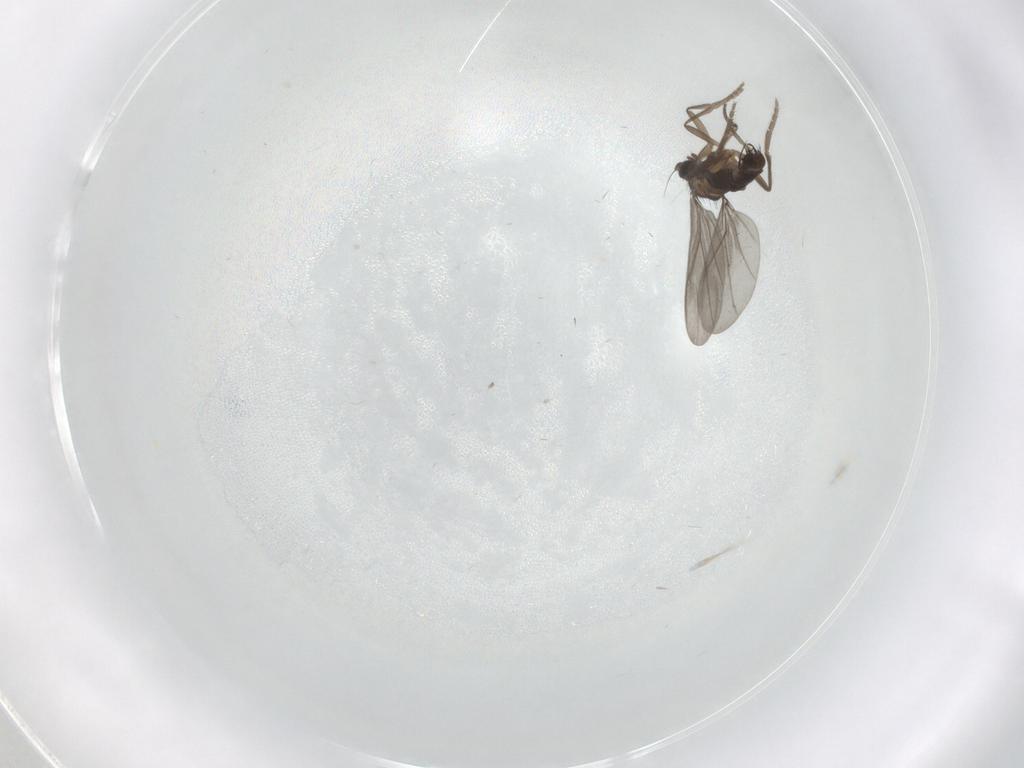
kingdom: Animalia
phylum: Arthropoda
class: Insecta
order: Diptera
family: Phoridae
